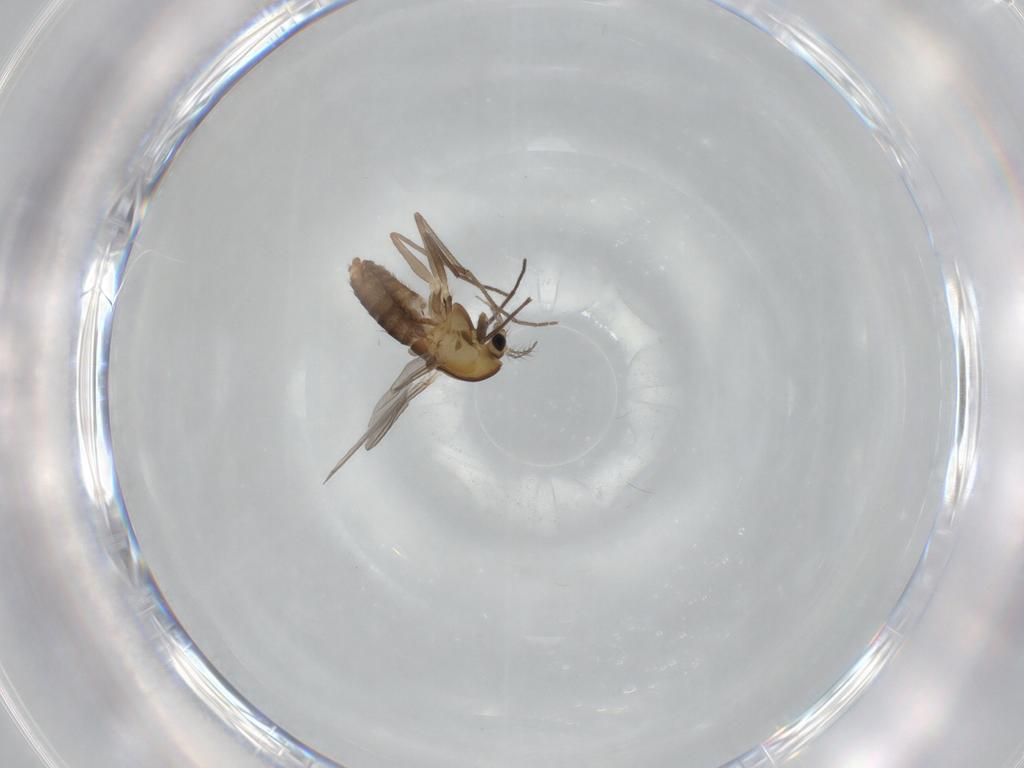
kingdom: Animalia
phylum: Arthropoda
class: Insecta
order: Diptera
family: Chironomidae
